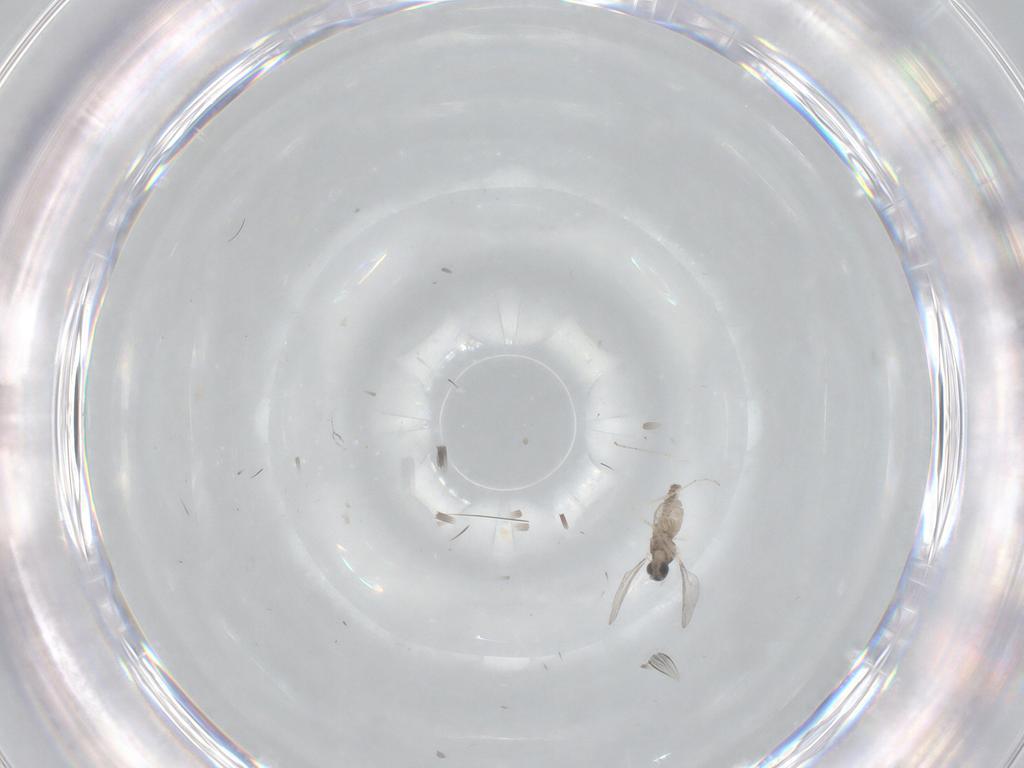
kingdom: Animalia
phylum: Arthropoda
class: Insecta
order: Diptera
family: Cecidomyiidae
